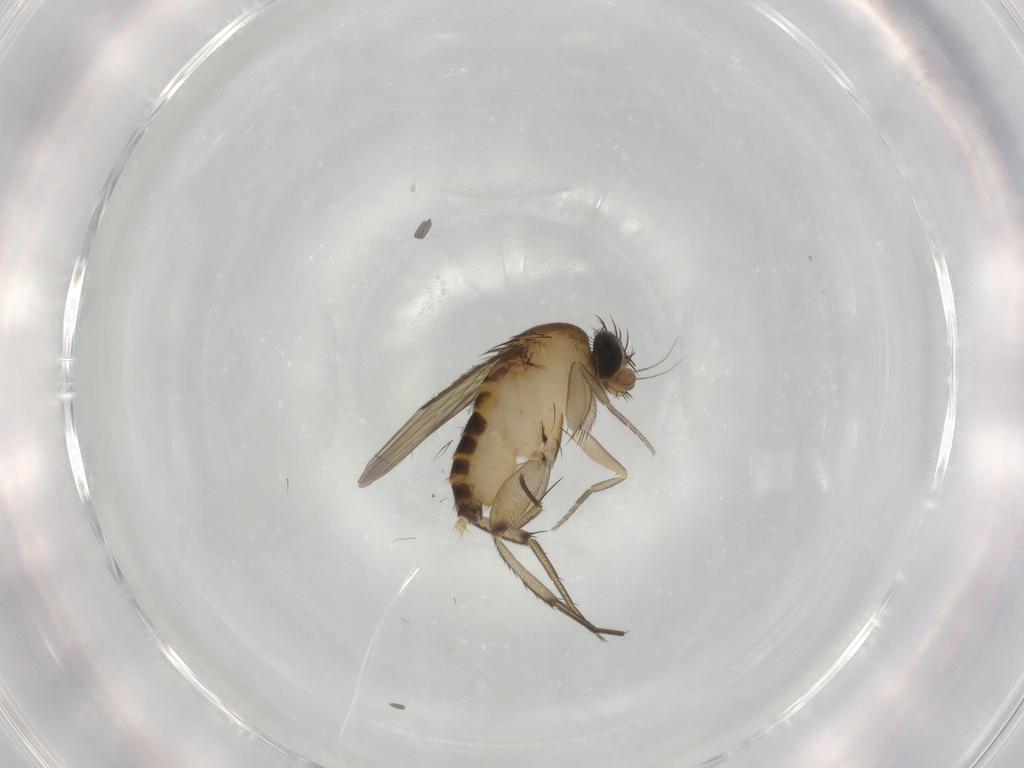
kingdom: Animalia
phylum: Arthropoda
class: Insecta
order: Diptera
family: Phoridae
